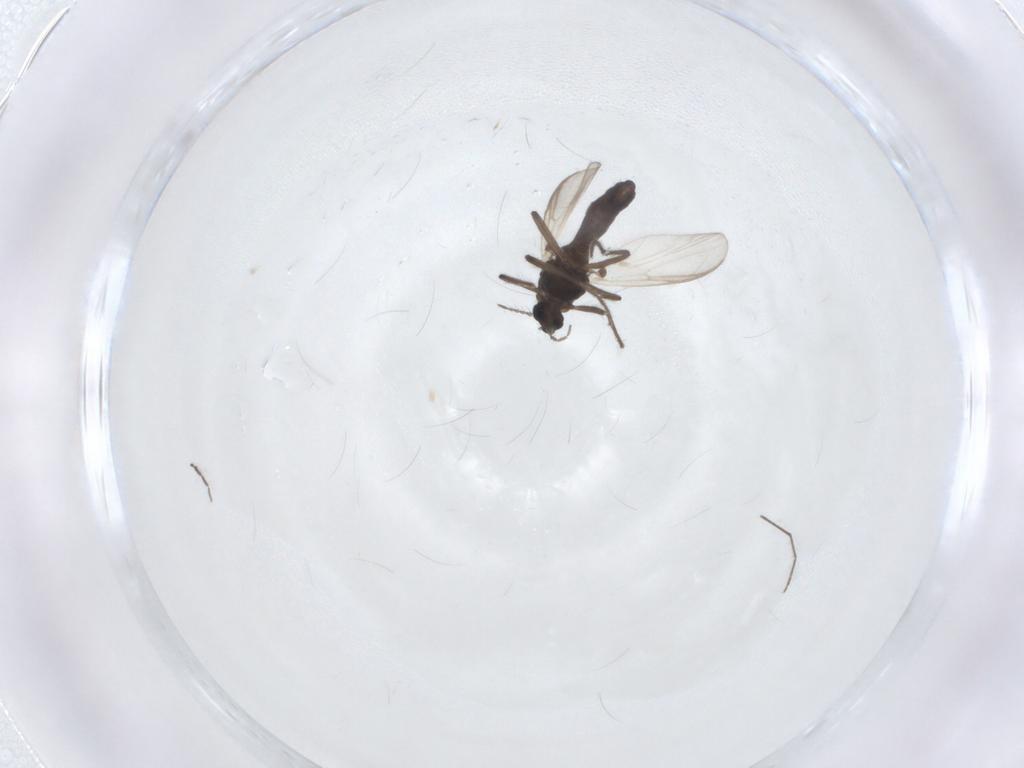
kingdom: Animalia
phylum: Arthropoda
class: Insecta
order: Diptera
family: Chironomidae
